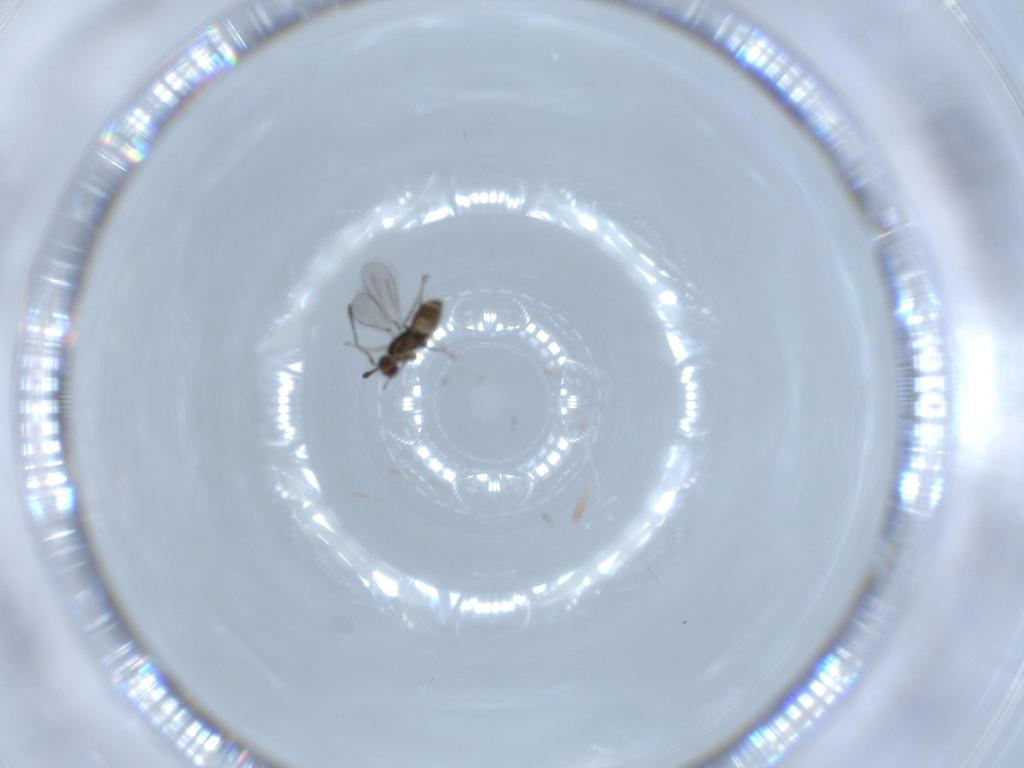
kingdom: Animalia
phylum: Arthropoda
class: Insecta
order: Hymenoptera
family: Mymaridae
